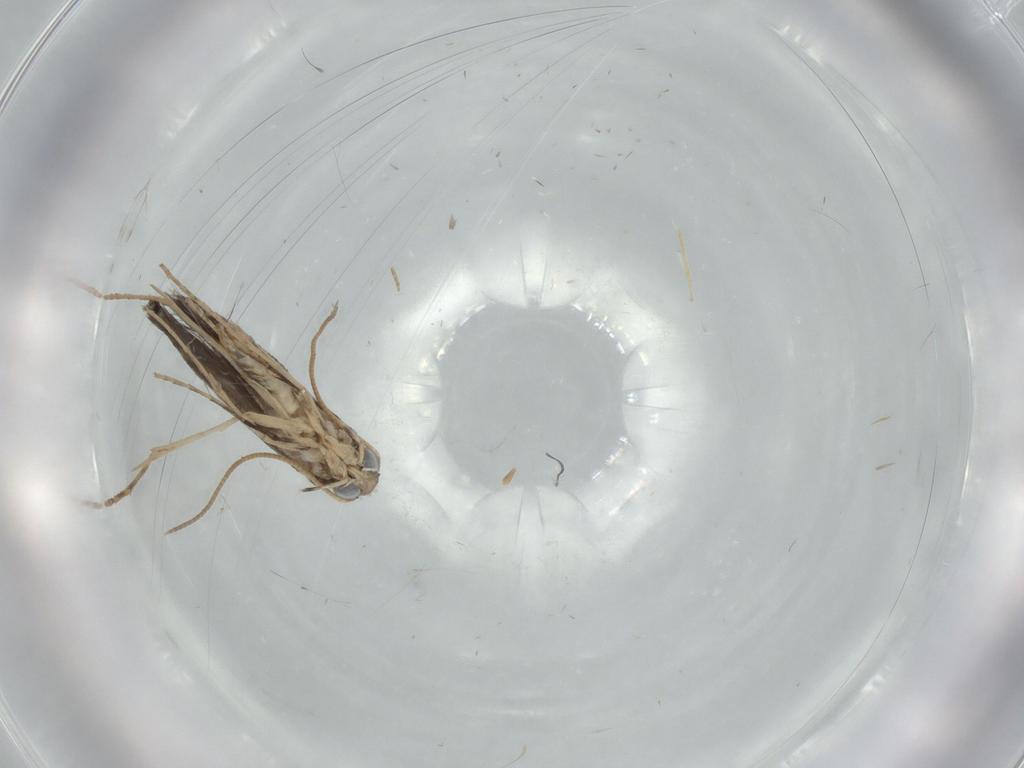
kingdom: Animalia
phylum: Arthropoda
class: Insecta
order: Lepidoptera
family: Gracillariidae
